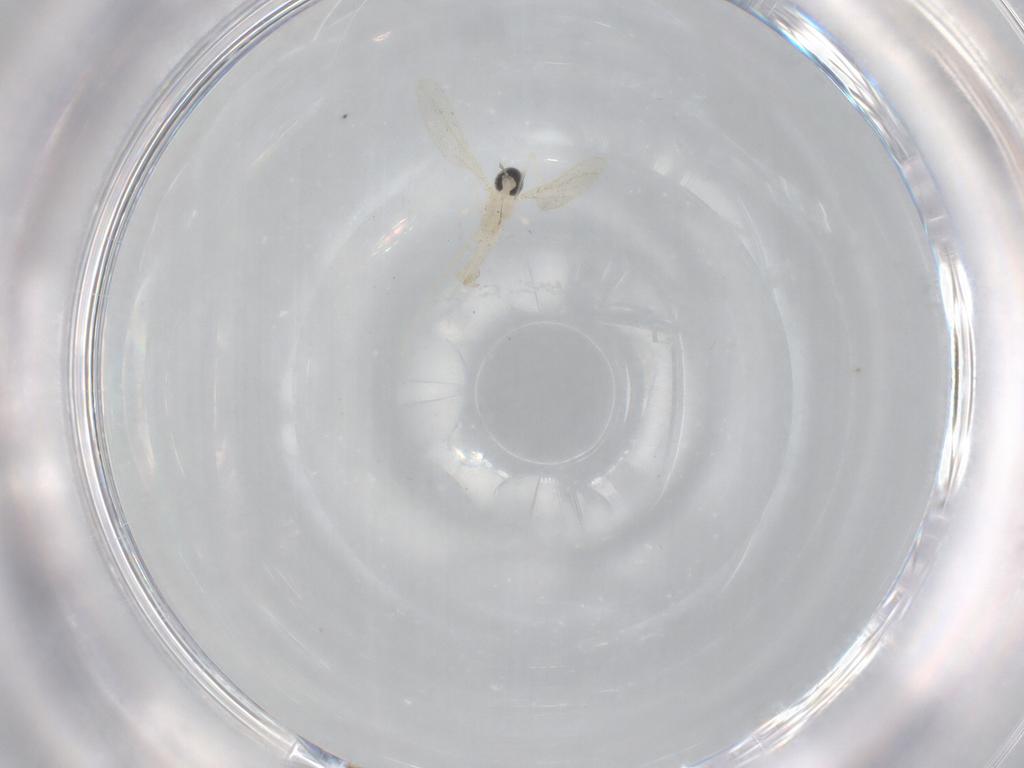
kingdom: Animalia
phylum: Arthropoda
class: Insecta
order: Diptera
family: Cecidomyiidae
